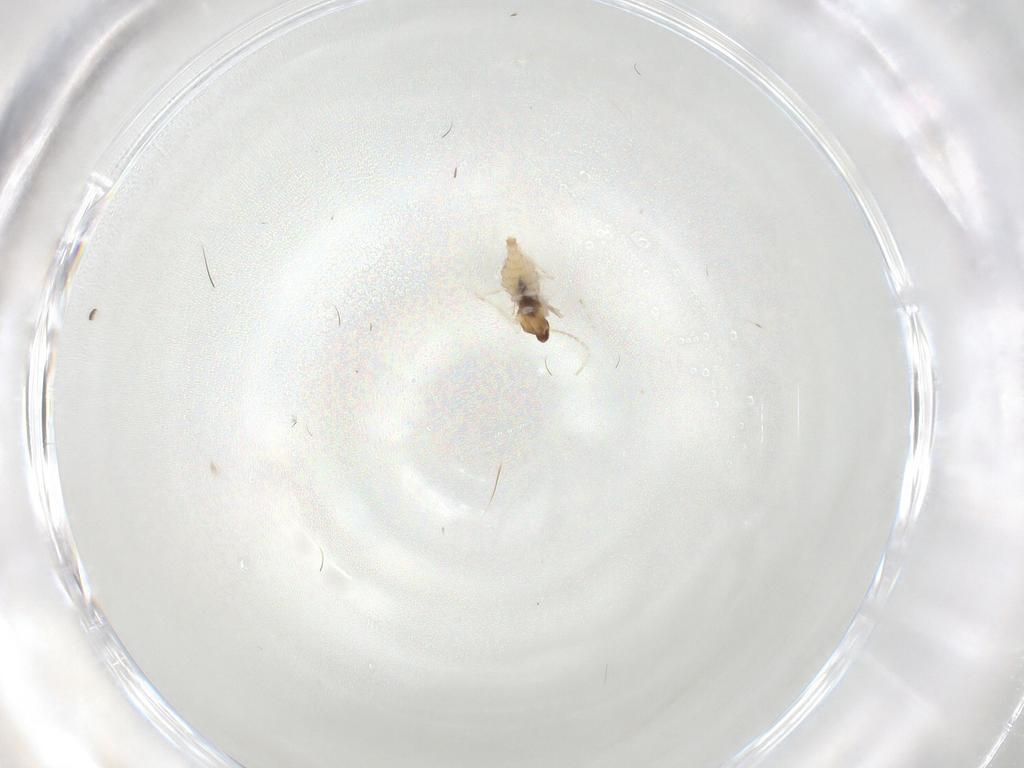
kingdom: Animalia
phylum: Arthropoda
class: Insecta
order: Diptera
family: Cecidomyiidae
